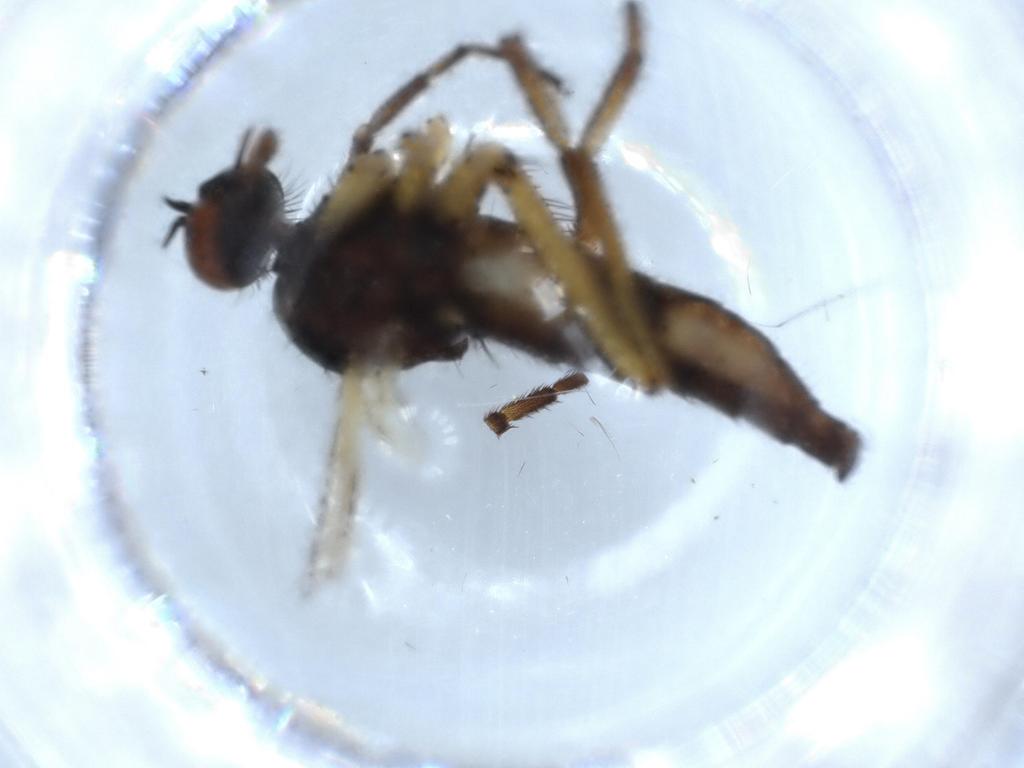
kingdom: Animalia
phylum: Arthropoda
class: Insecta
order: Diptera
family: Empididae
